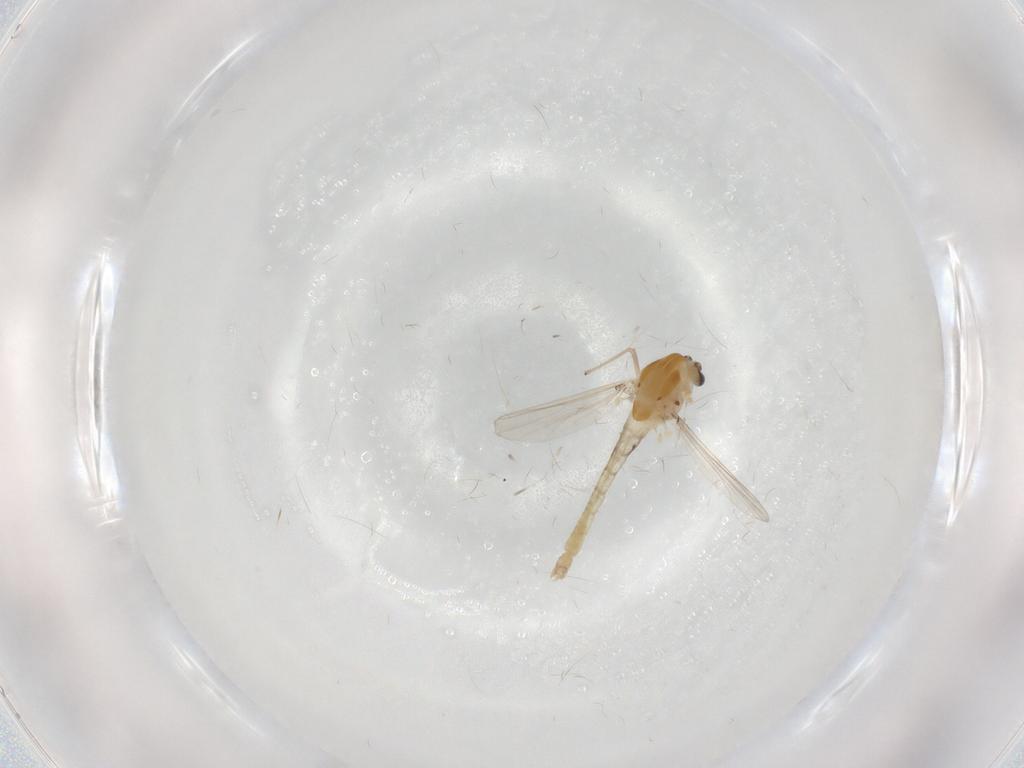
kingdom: Animalia
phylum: Arthropoda
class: Insecta
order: Diptera
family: Chironomidae
